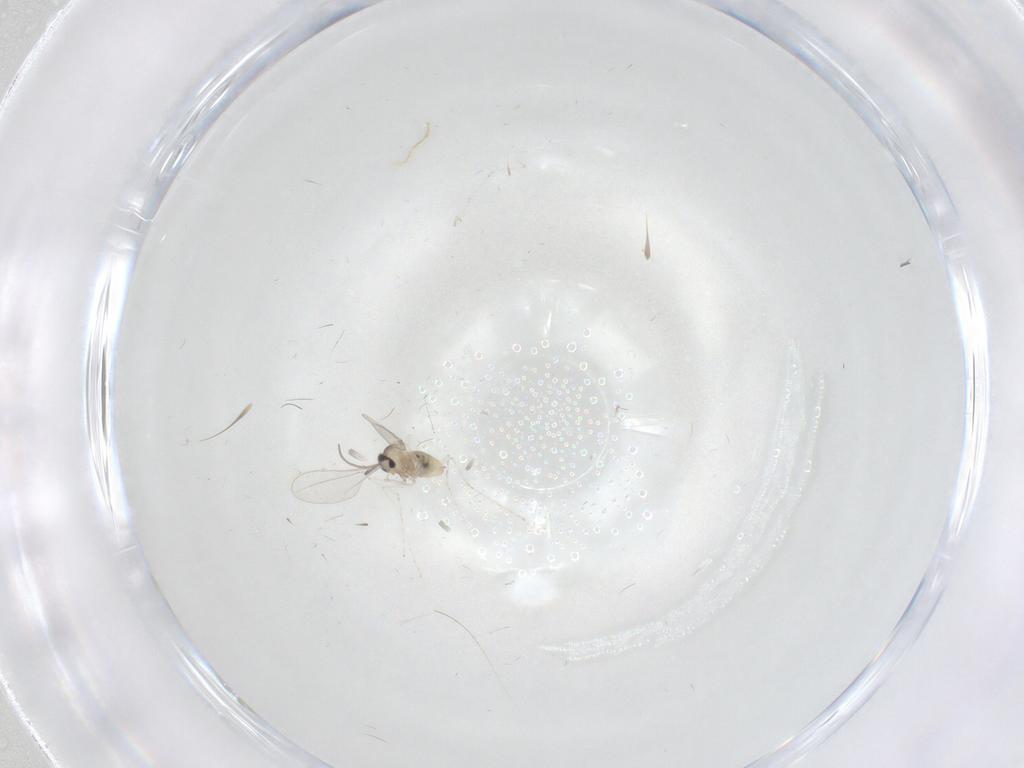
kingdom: Animalia
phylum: Arthropoda
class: Insecta
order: Diptera
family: Cecidomyiidae
